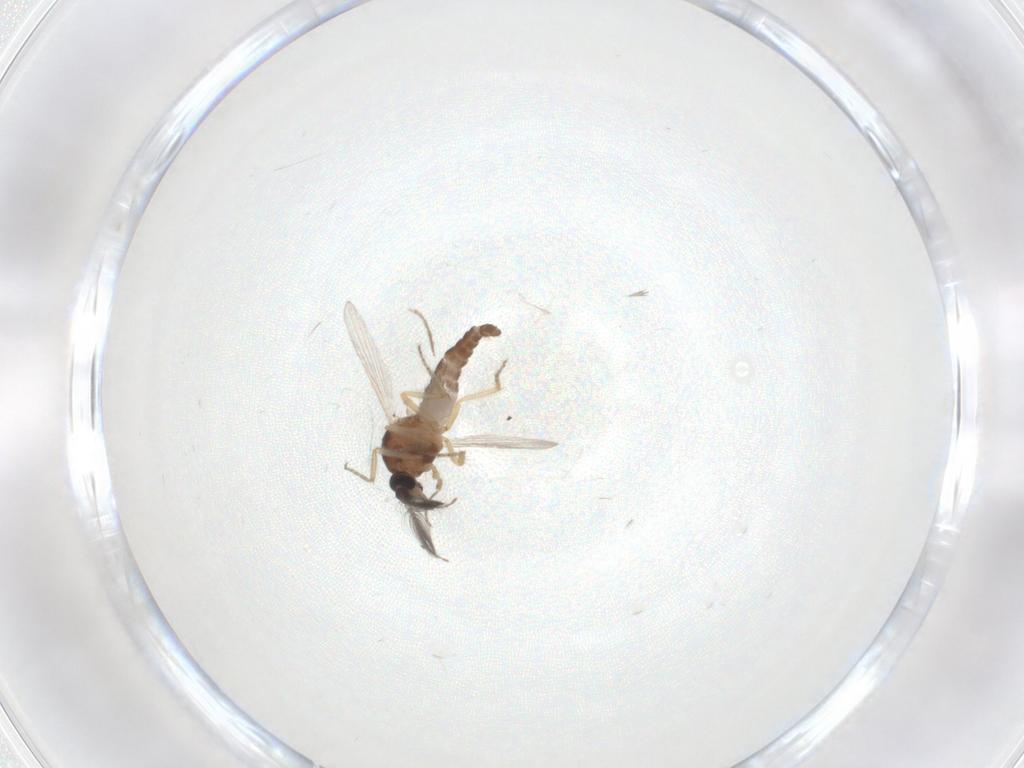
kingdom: Animalia
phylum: Arthropoda
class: Insecta
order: Diptera
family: Ceratopogonidae
